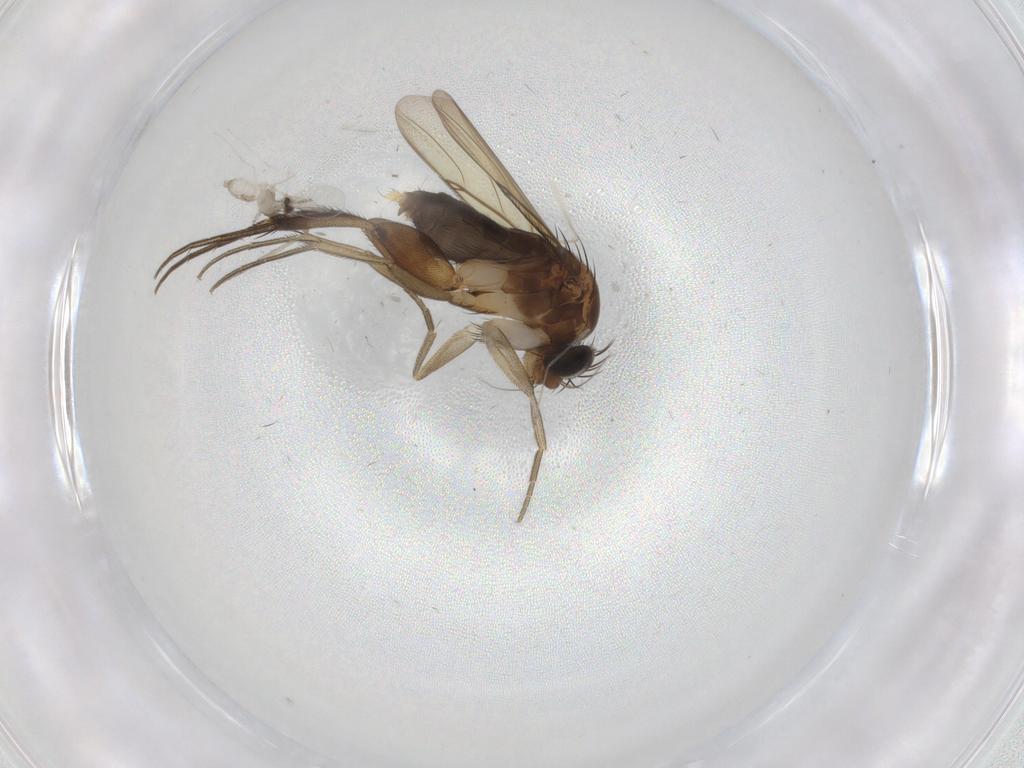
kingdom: Animalia
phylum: Arthropoda
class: Insecta
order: Diptera
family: Phoridae
